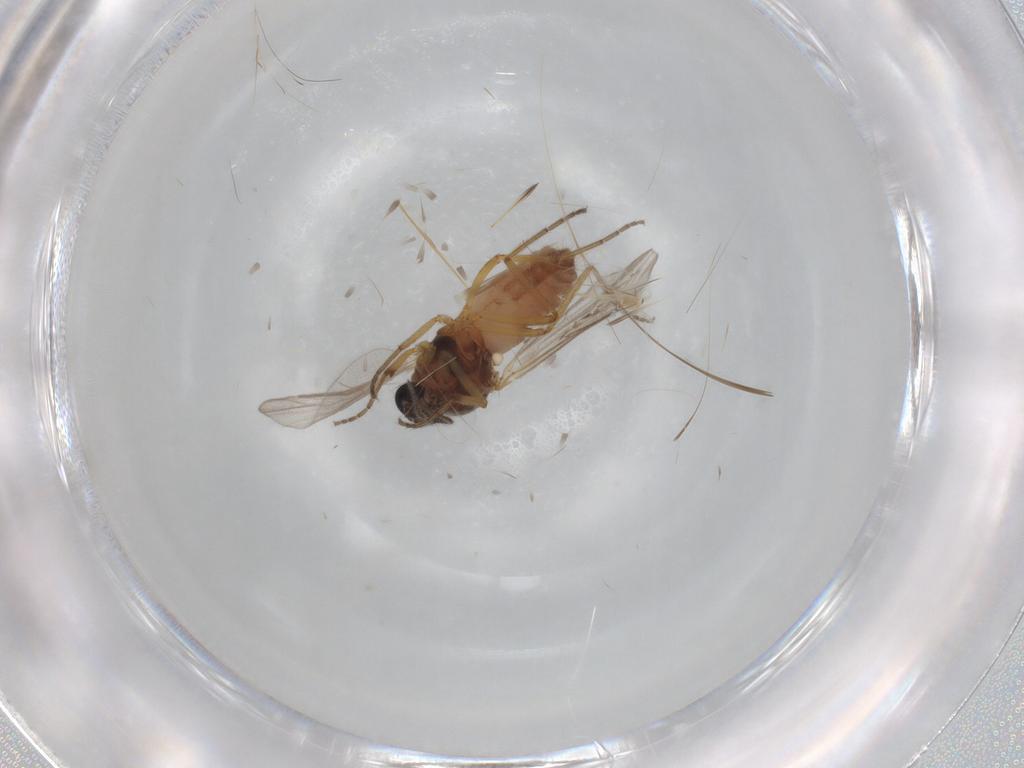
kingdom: Animalia
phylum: Arthropoda
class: Insecta
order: Diptera
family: Ceratopogonidae
